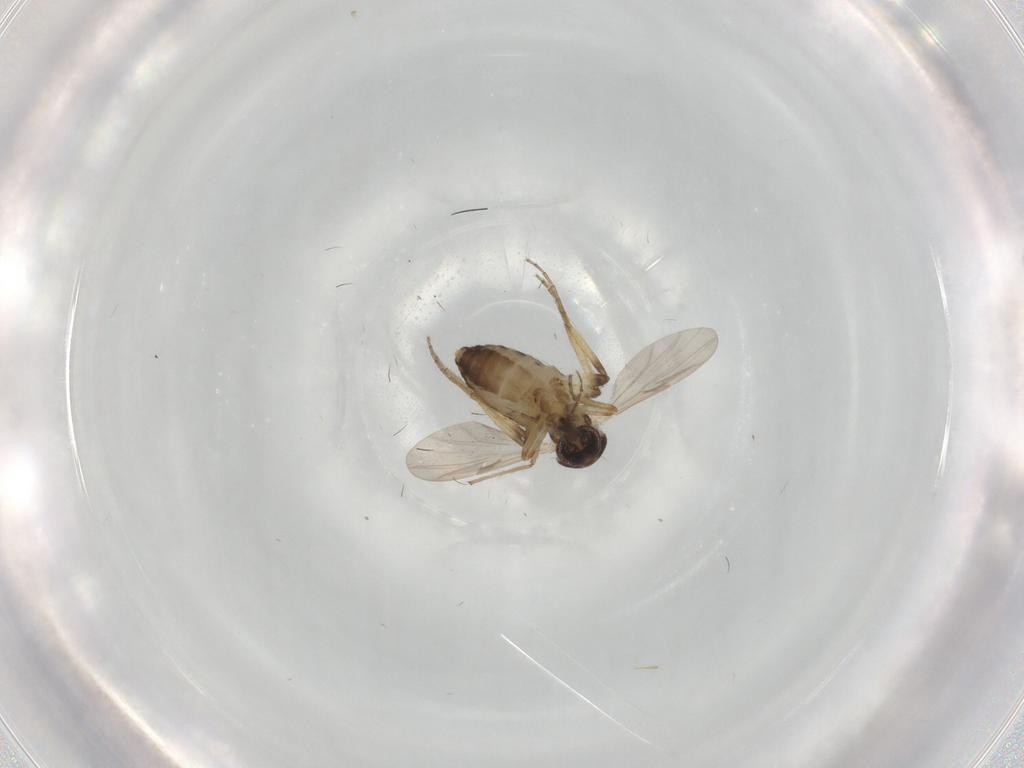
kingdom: Animalia
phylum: Arthropoda
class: Insecta
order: Diptera
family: Ceratopogonidae
